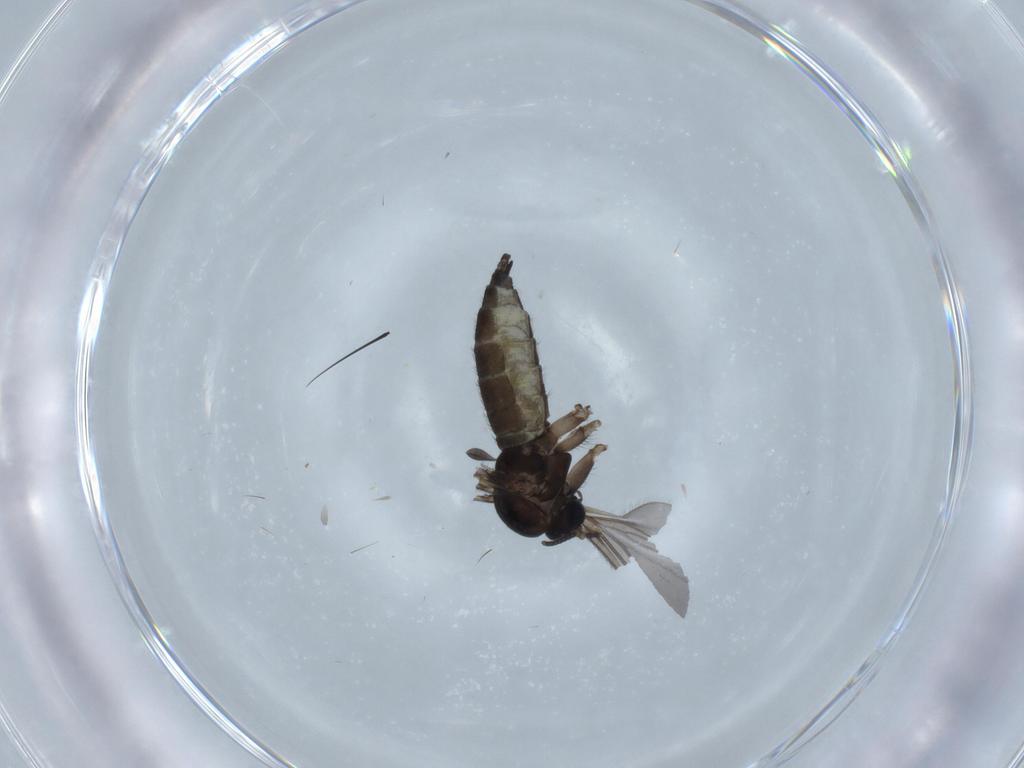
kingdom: Animalia
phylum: Arthropoda
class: Insecta
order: Diptera
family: Sciaridae
